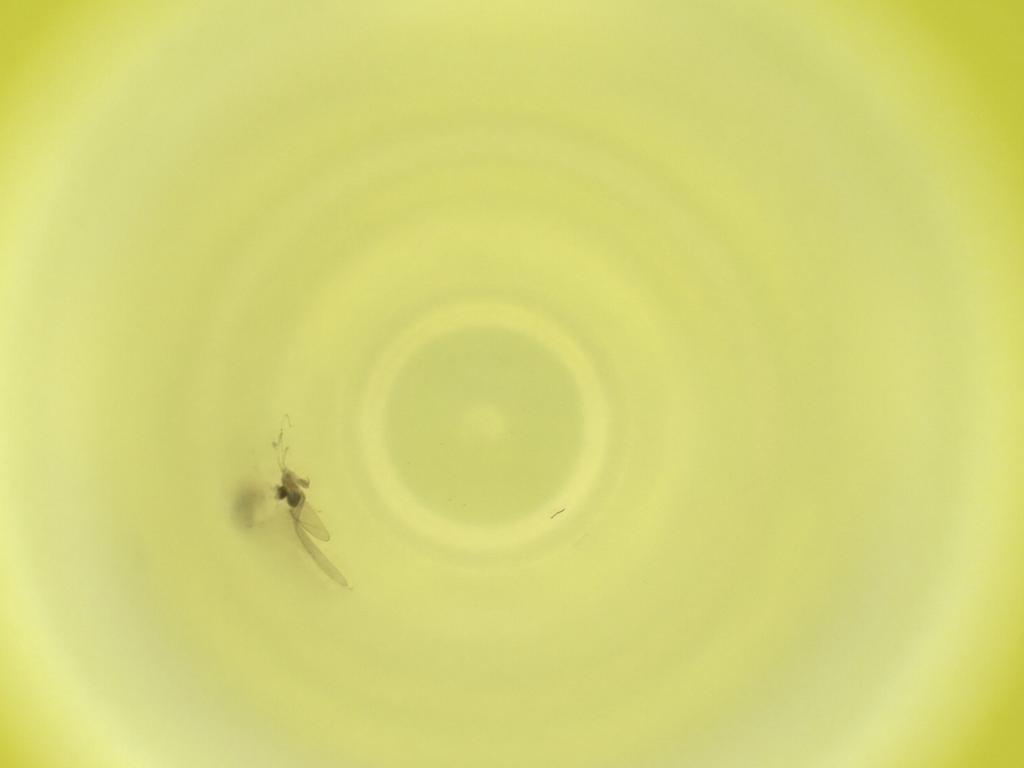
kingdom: Animalia
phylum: Arthropoda
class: Insecta
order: Diptera
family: Cecidomyiidae
